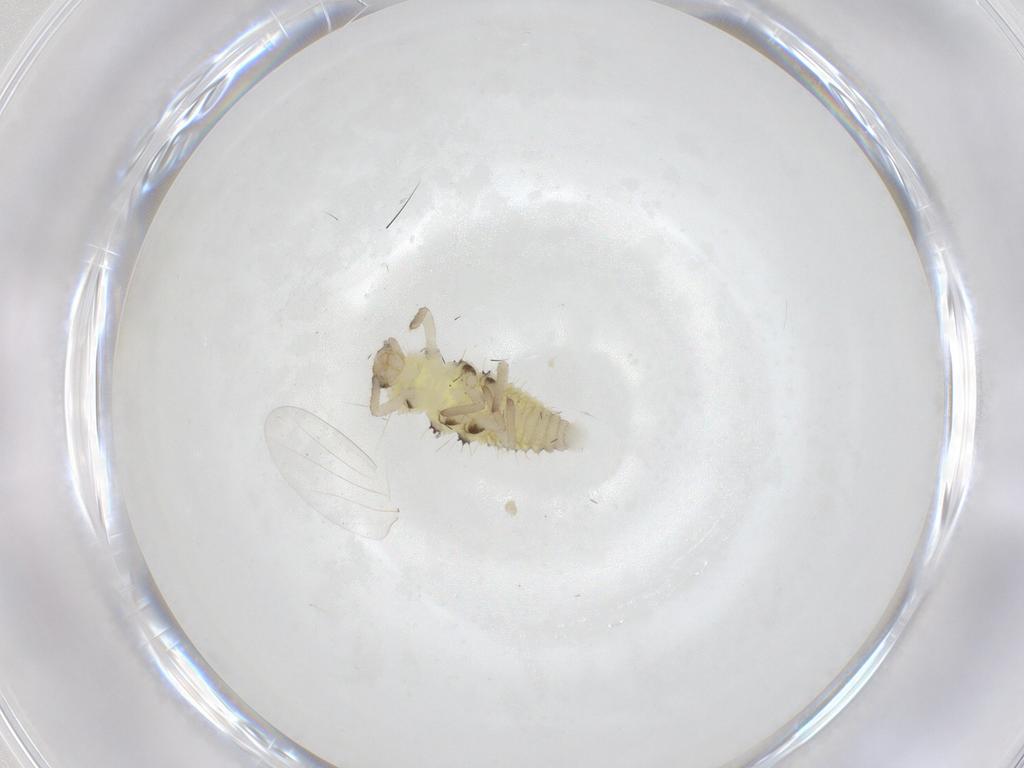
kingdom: Animalia
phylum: Arthropoda
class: Insecta
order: Coleoptera
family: Coccinellidae
